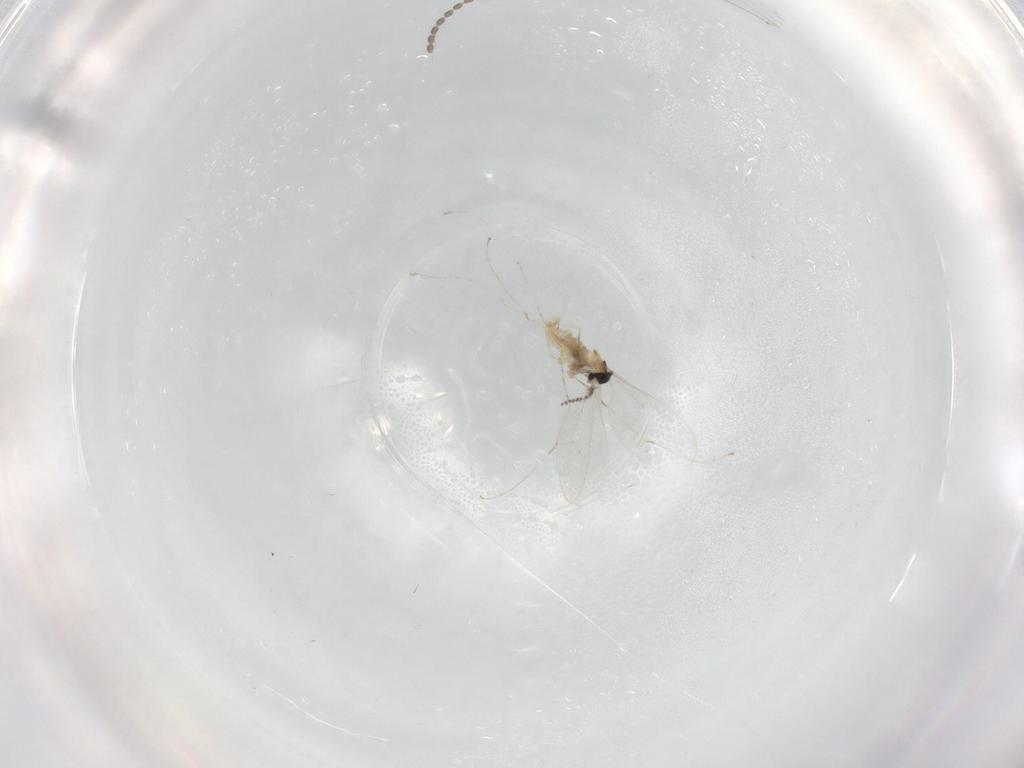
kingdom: Animalia
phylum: Arthropoda
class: Insecta
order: Diptera
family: Cecidomyiidae
